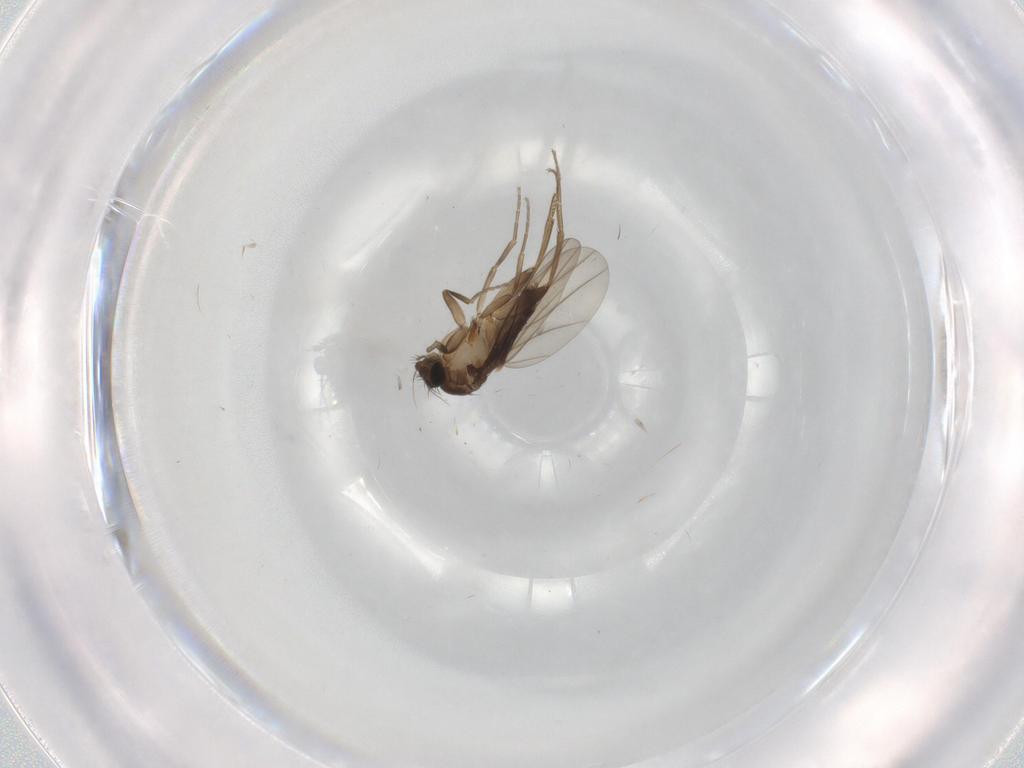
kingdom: Animalia
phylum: Arthropoda
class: Insecta
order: Diptera
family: Phoridae
